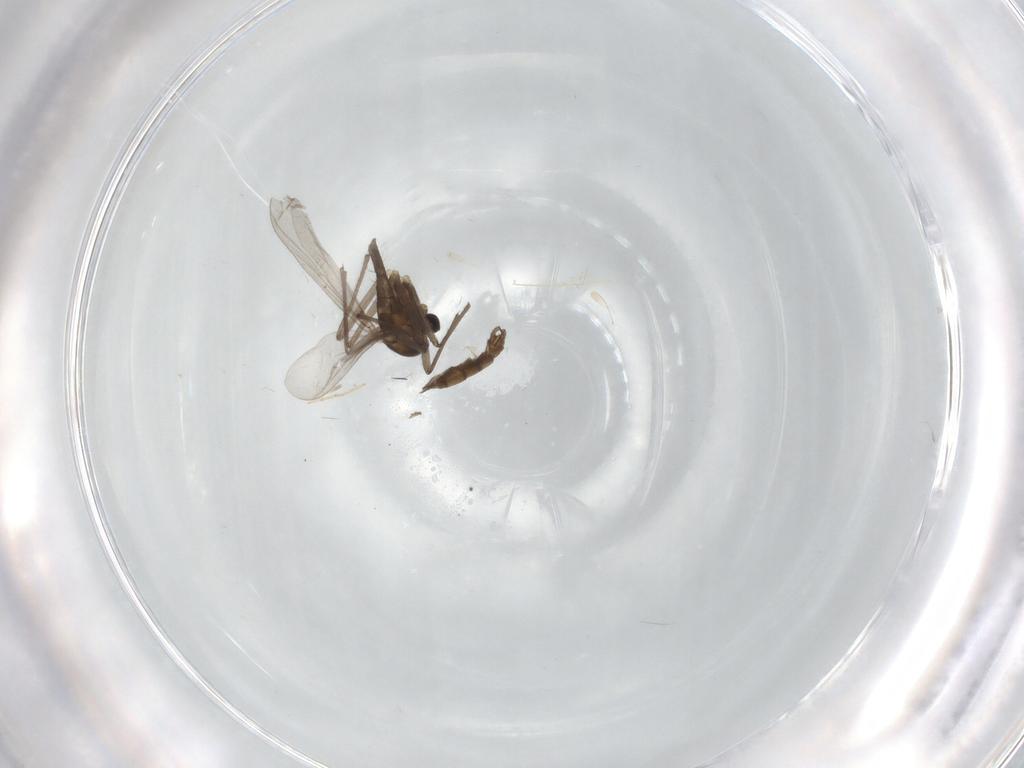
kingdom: Animalia
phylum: Arthropoda
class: Insecta
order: Diptera
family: Chironomidae
